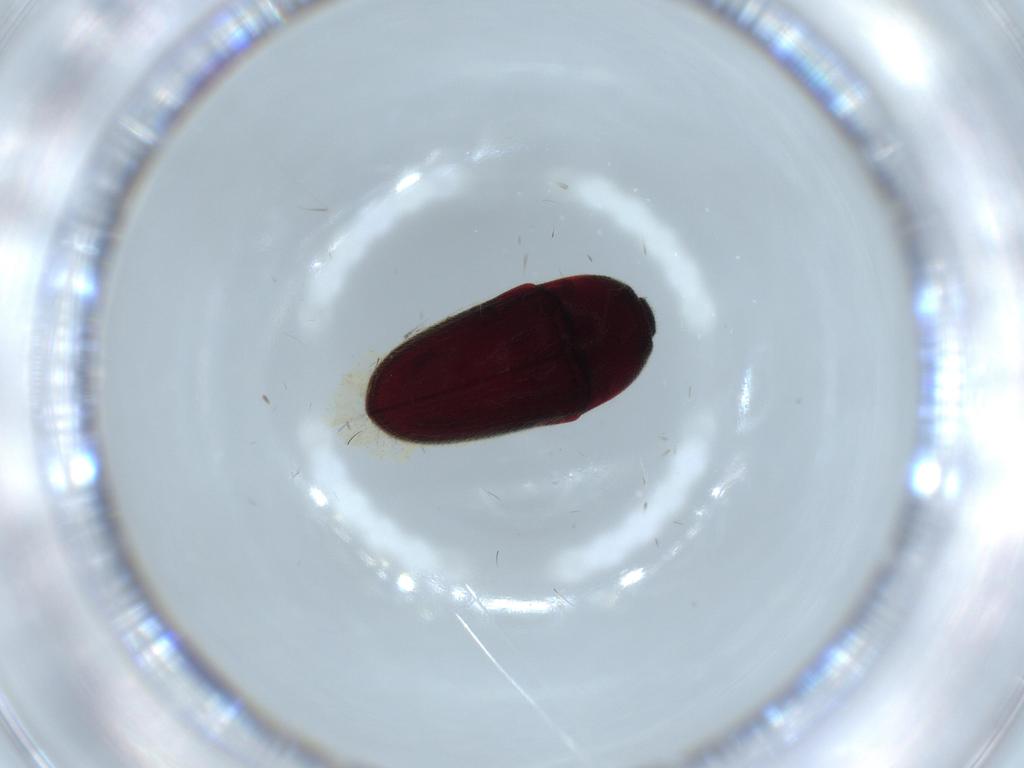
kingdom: Animalia
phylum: Arthropoda
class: Insecta
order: Coleoptera
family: Throscidae
